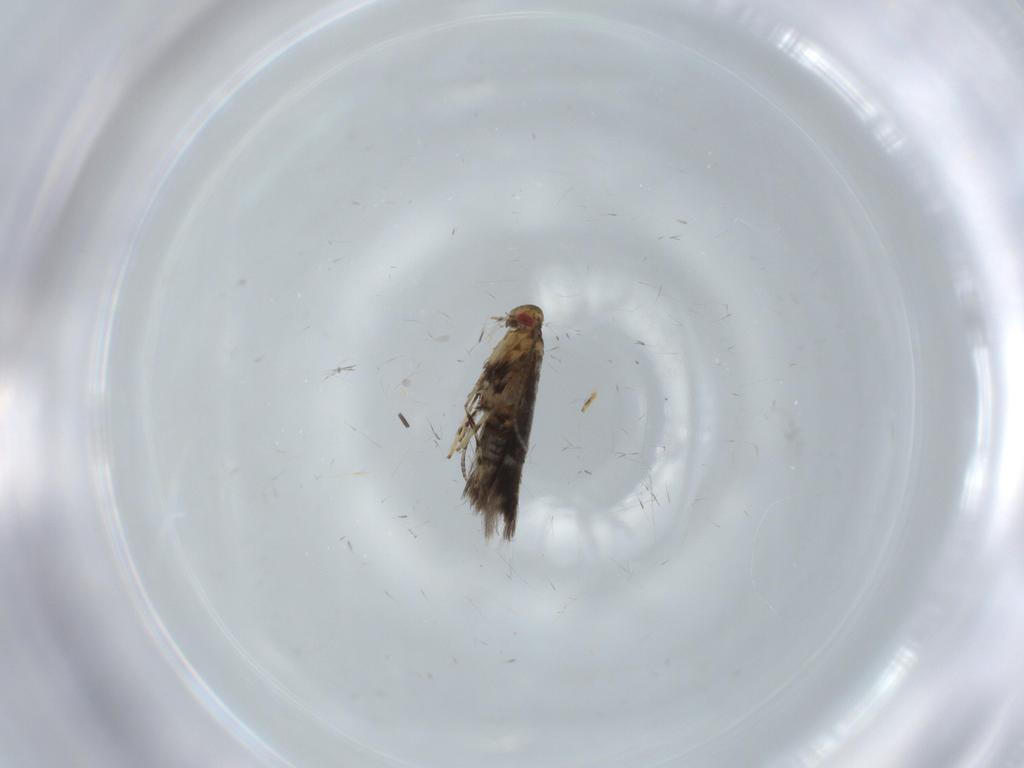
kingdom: Animalia
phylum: Arthropoda
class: Insecta
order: Lepidoptera
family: Gracillariidae
